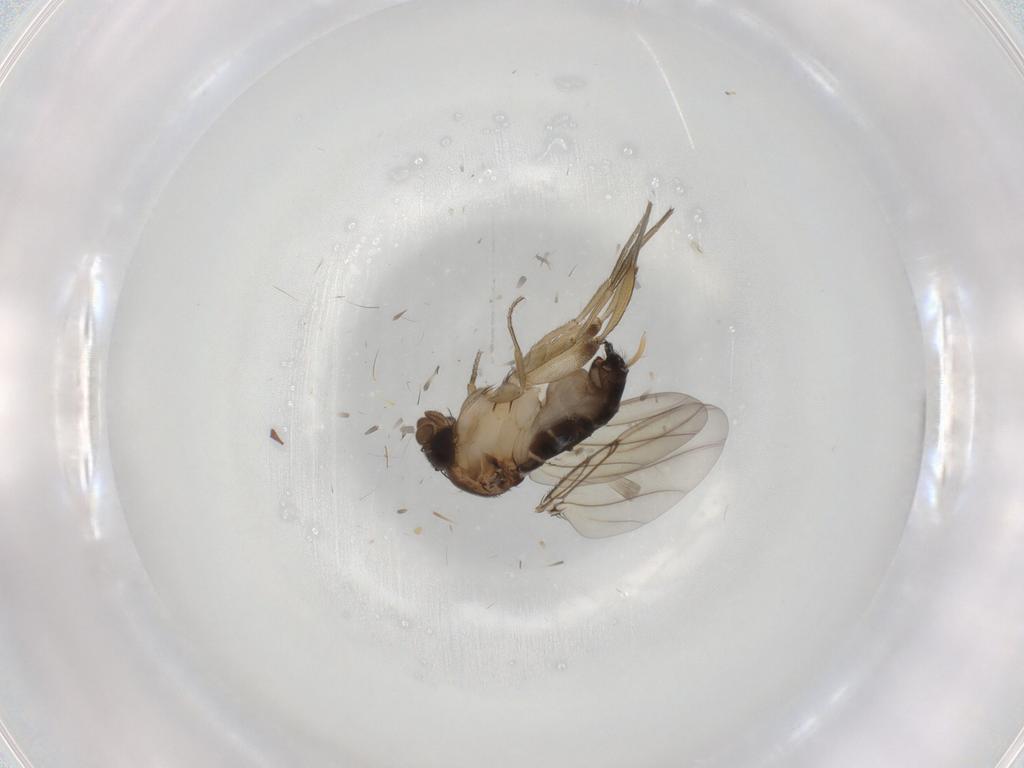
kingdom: Animalia
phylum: Arthropoda
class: Insecta
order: Diptera
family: Phoridae
